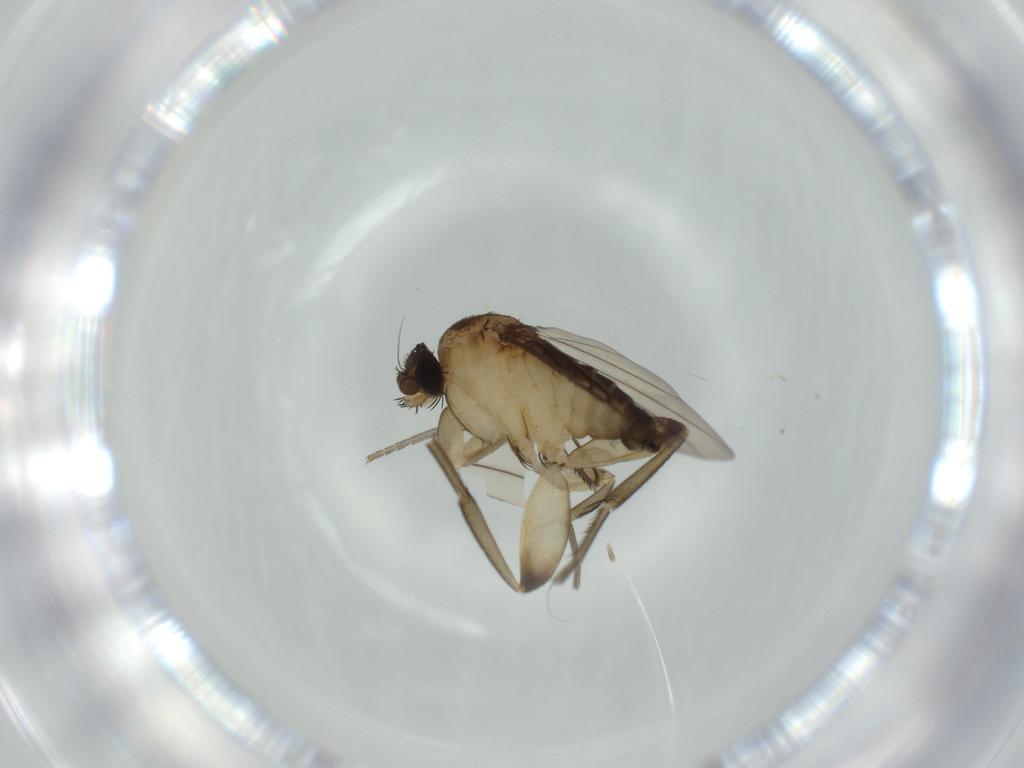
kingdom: Animalia
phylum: Arthropoda
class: Insecta
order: Diptera
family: Phoridae
